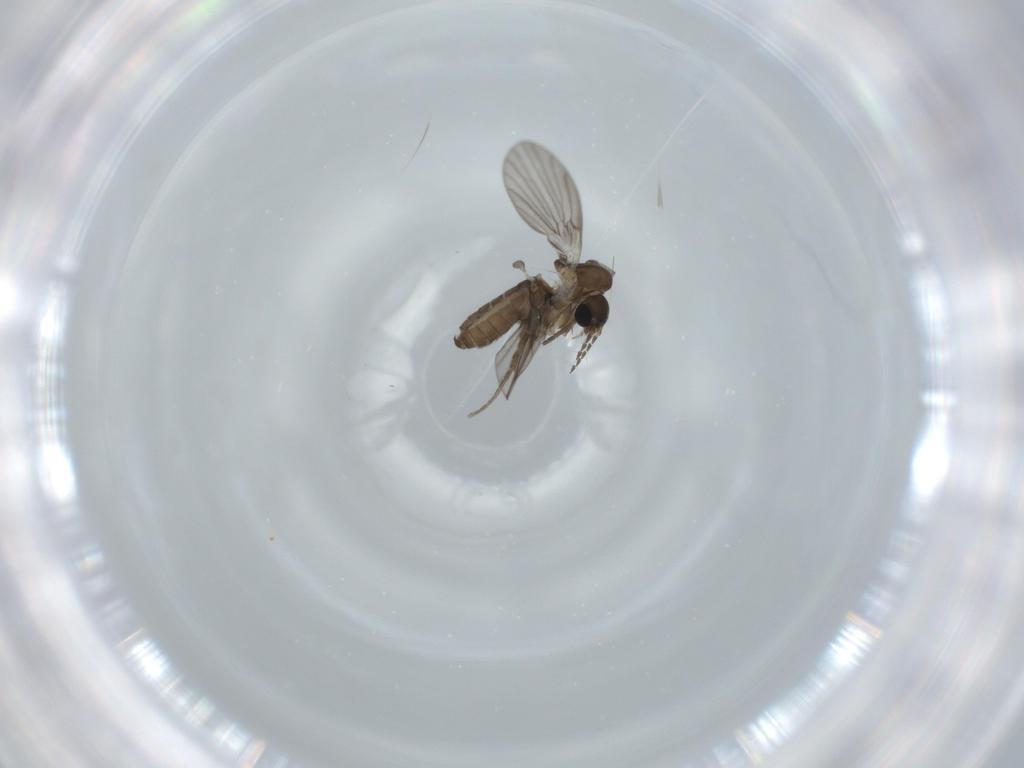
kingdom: Animalia
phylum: Arthropoda
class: Insecta
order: Diptera
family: Psychodidae
